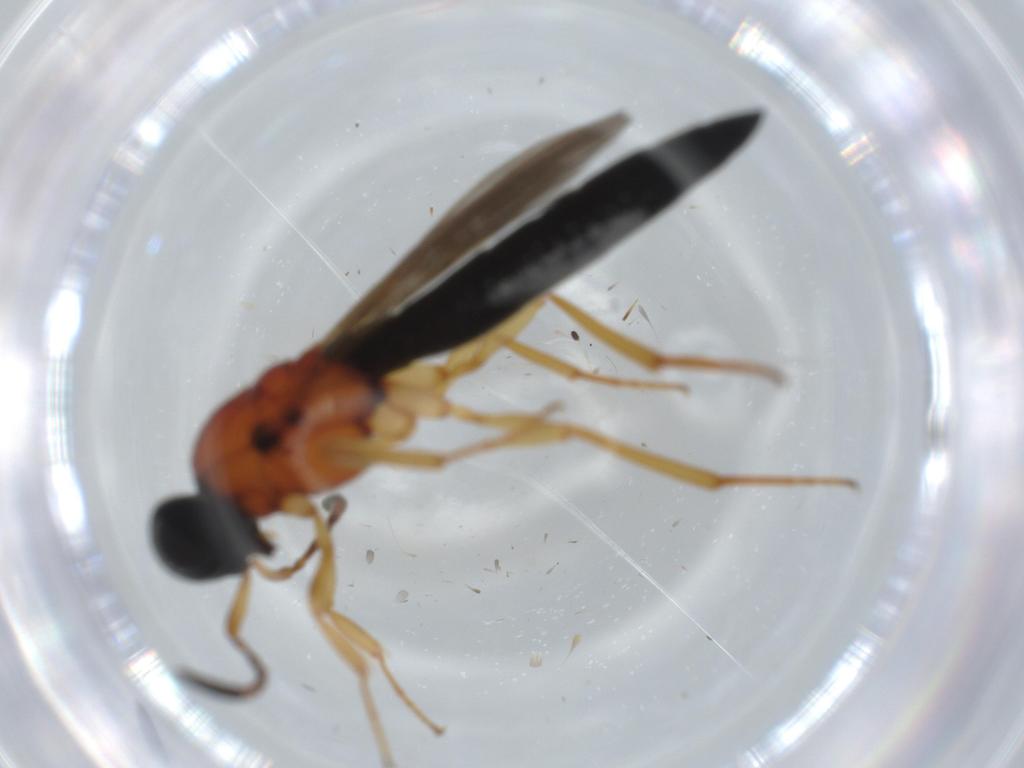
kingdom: Animalia
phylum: Arthropoda
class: Insecta
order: Hymenoptera
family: Scelionidae
